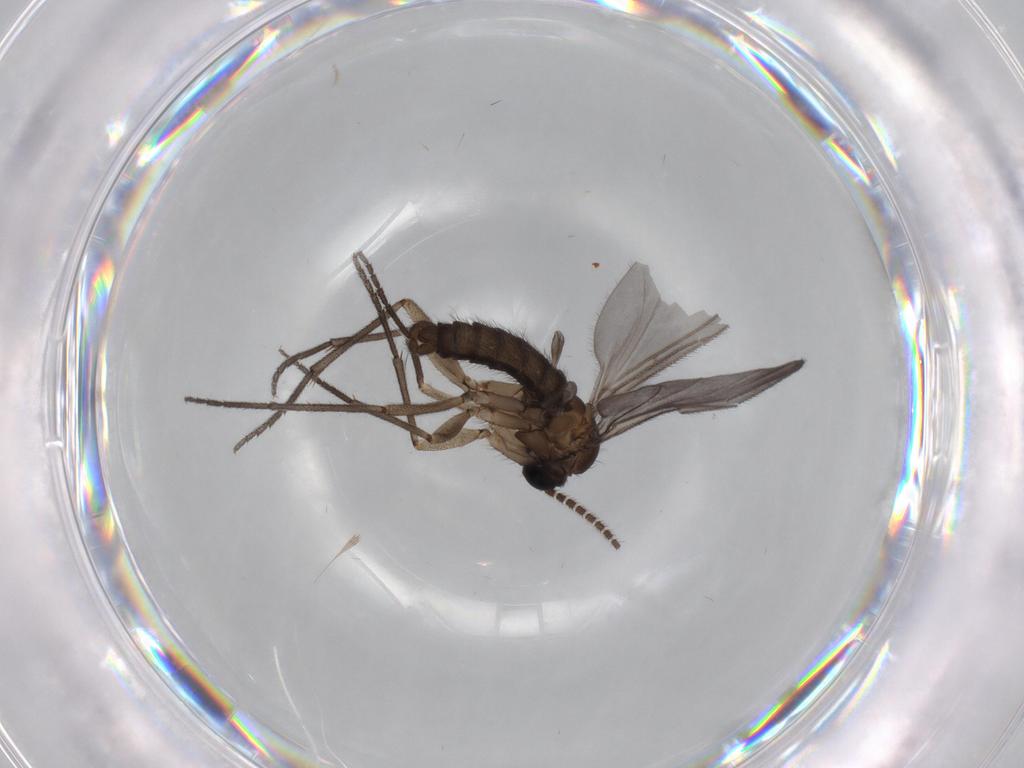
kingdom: Animalia
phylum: Arthropoda
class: Insecta
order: Diptera
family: Sciaridae
